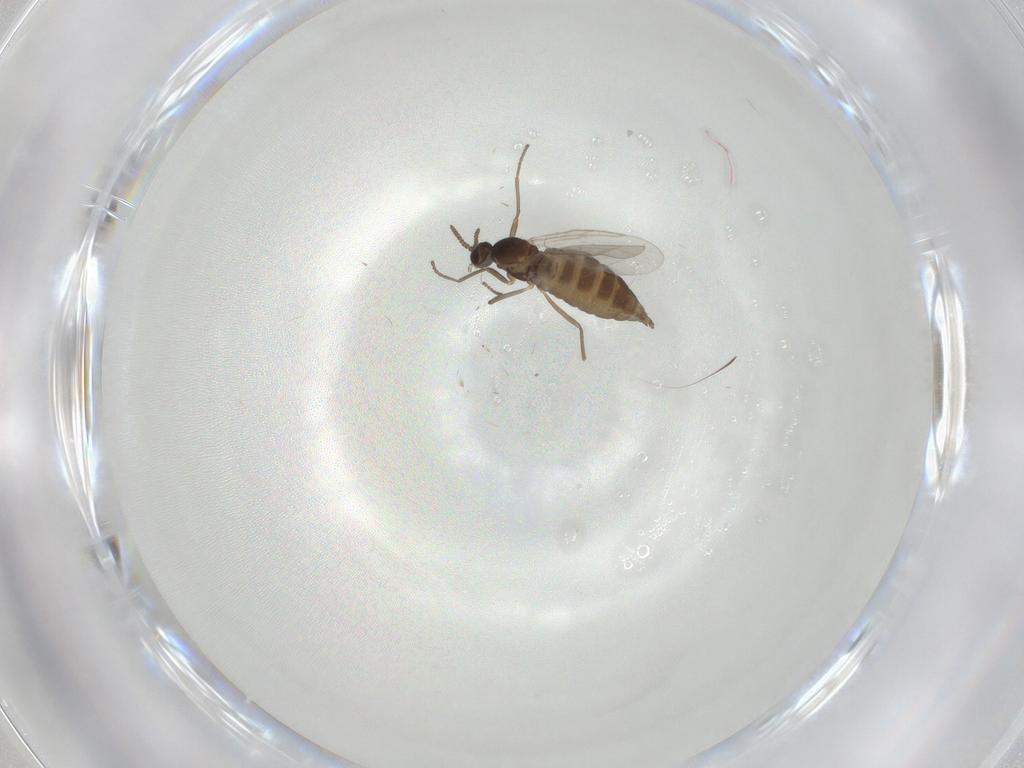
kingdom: Animalia
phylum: Arthropoda
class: Insecta
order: Diptera
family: Cecidomyiidae
